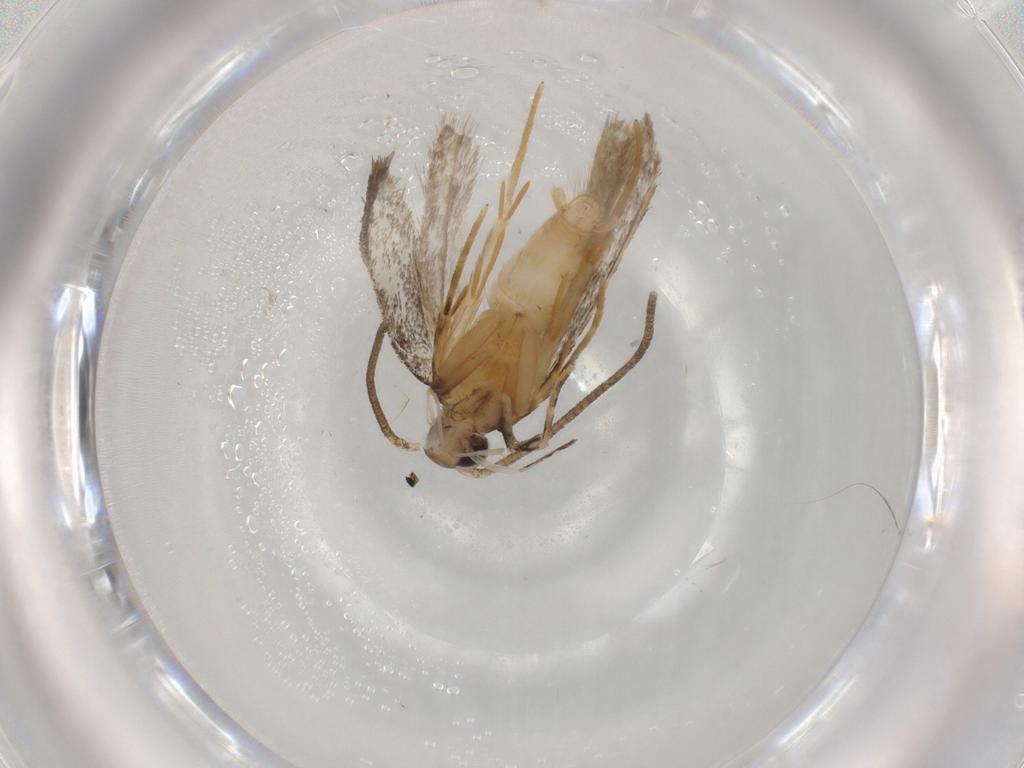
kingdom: Animalia
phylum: Arthropoda
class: Insecta
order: Lepidoptera
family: Autostichidae
